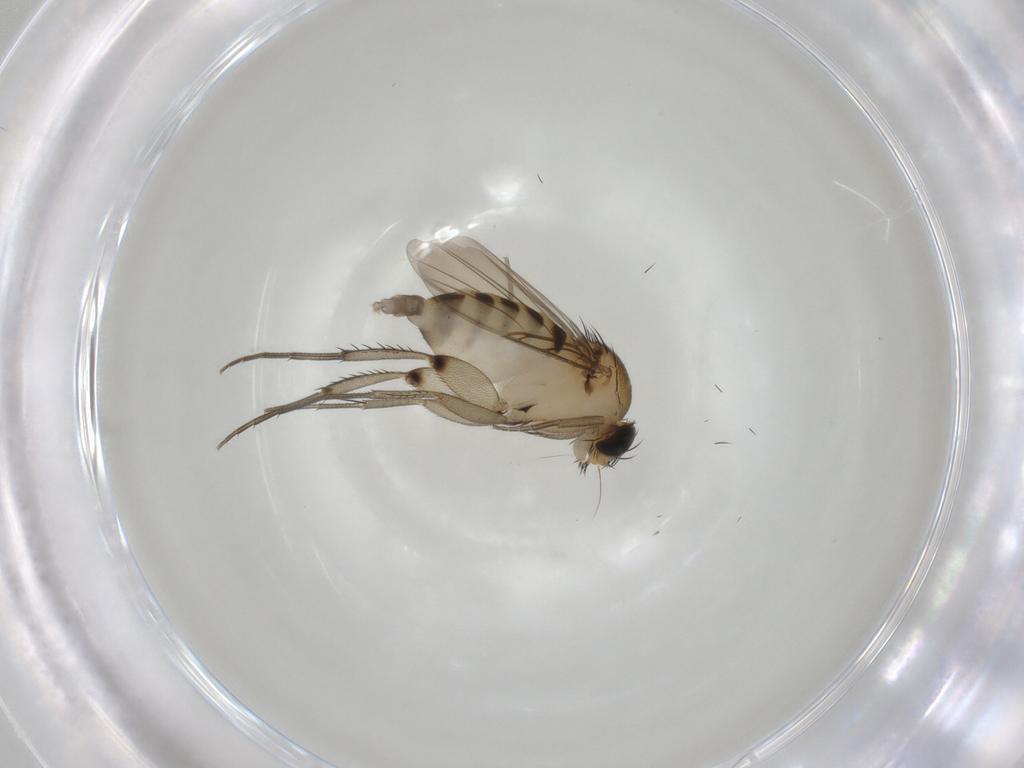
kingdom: Animalia
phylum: Arthropoda
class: Insecta
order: Diptera
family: Phoridae
